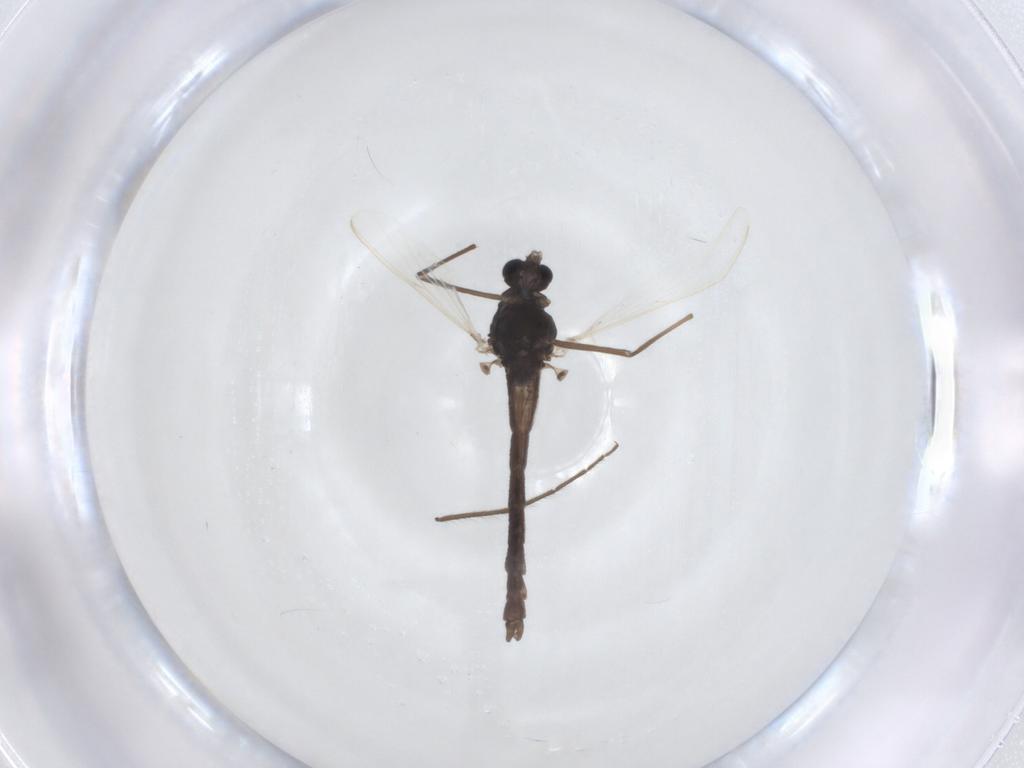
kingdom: Animalia
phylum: Arthropoda
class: Insecta
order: Diptera
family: Chironomidae
